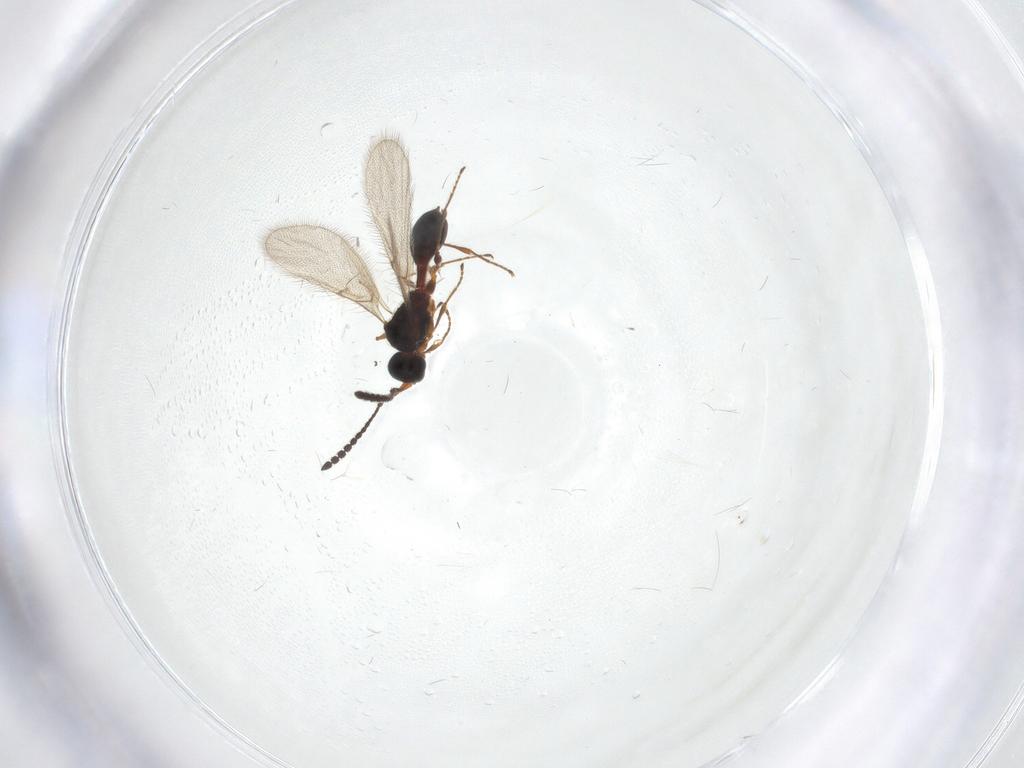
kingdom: Animalia
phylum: Arthropoda
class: Insecta
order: Hymenoptera
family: Diapriidae
